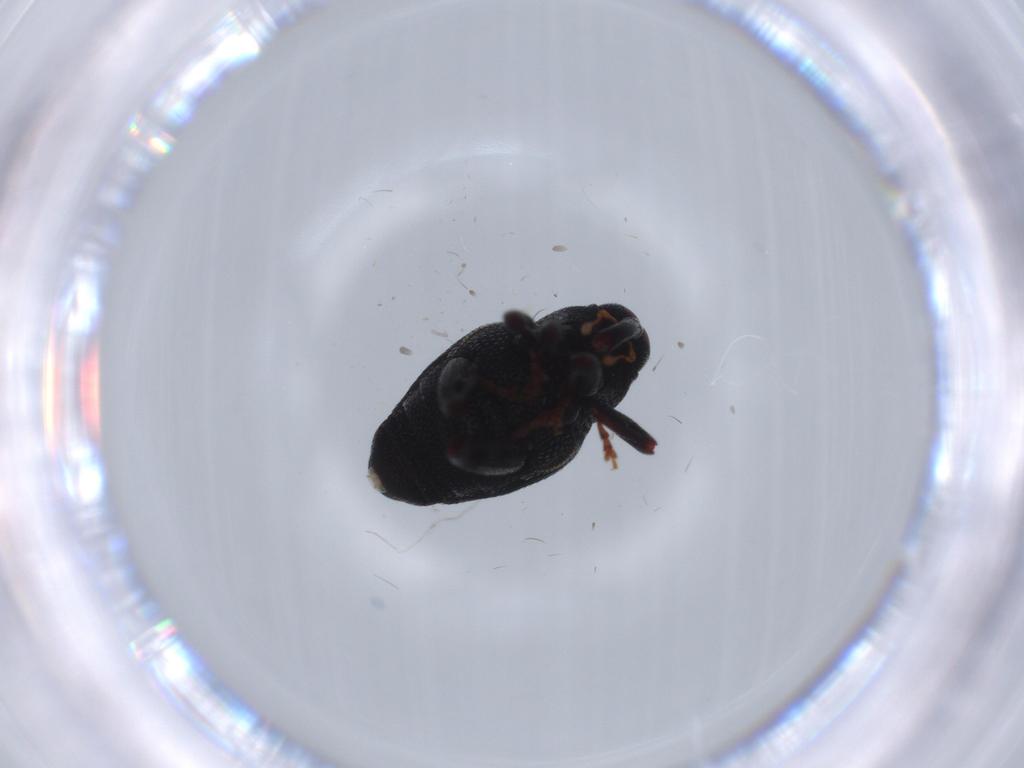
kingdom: Animalia
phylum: Arthropoda
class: Insecta
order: Coleoptera
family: Curculionidae
